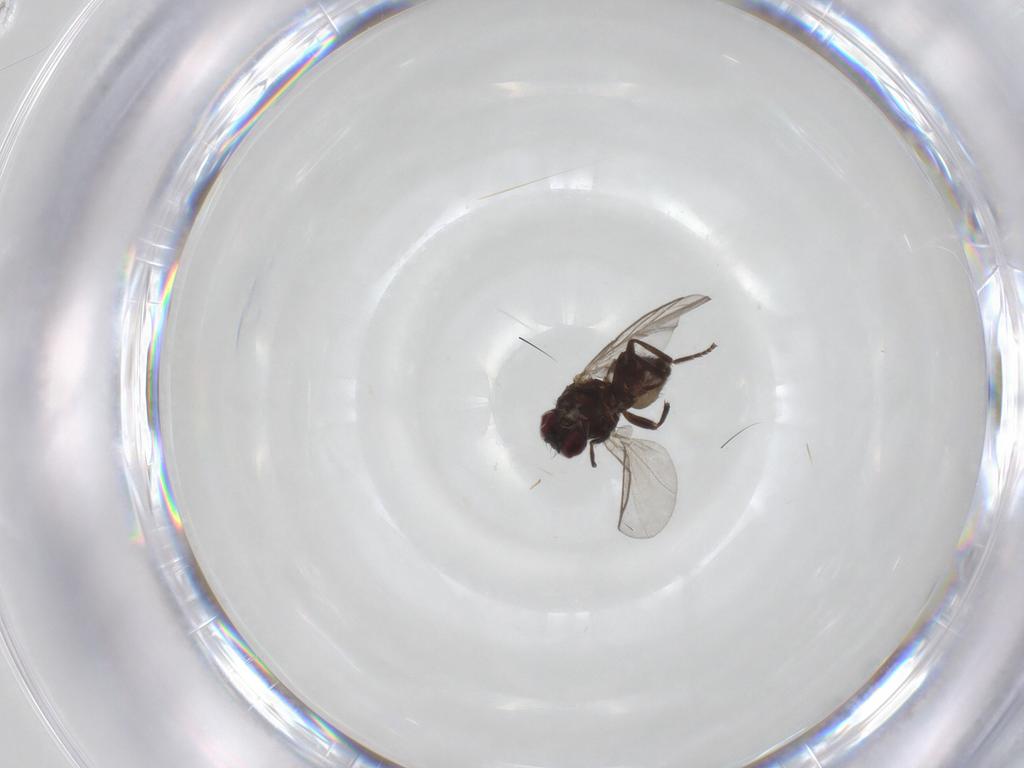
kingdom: Animalia
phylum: Arthropoda
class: Insecta
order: Diptera
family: Agromyzidae
